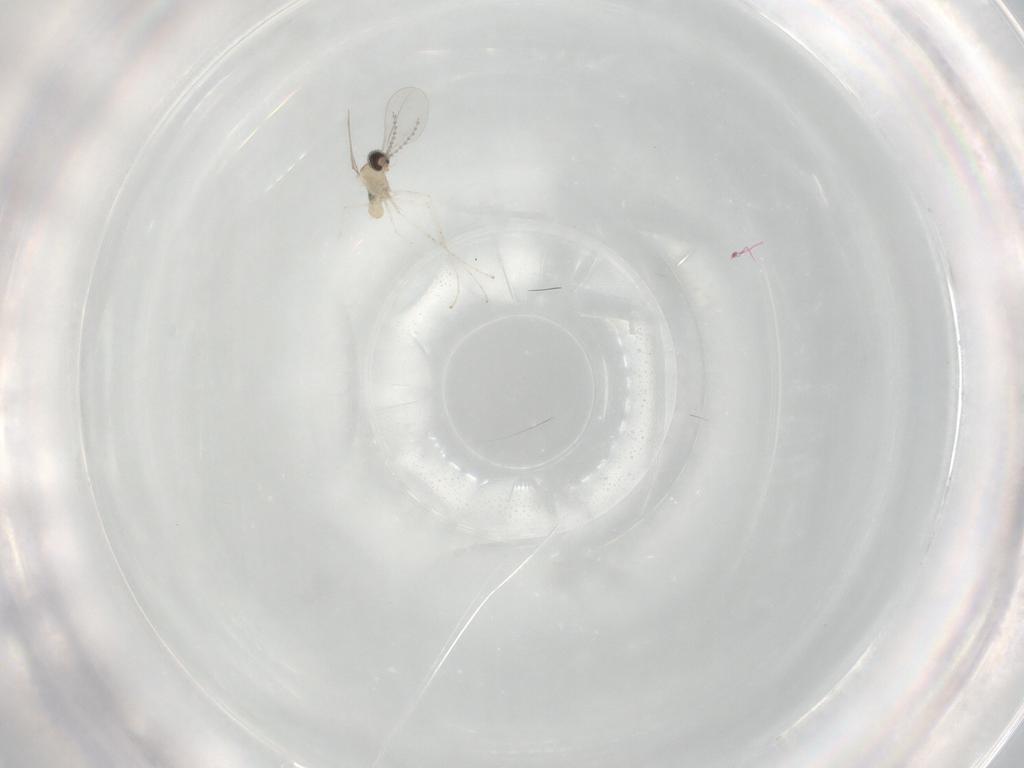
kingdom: Animalia
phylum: Arthropoda
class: Insecta
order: Diptera
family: Cecidomyiidae
